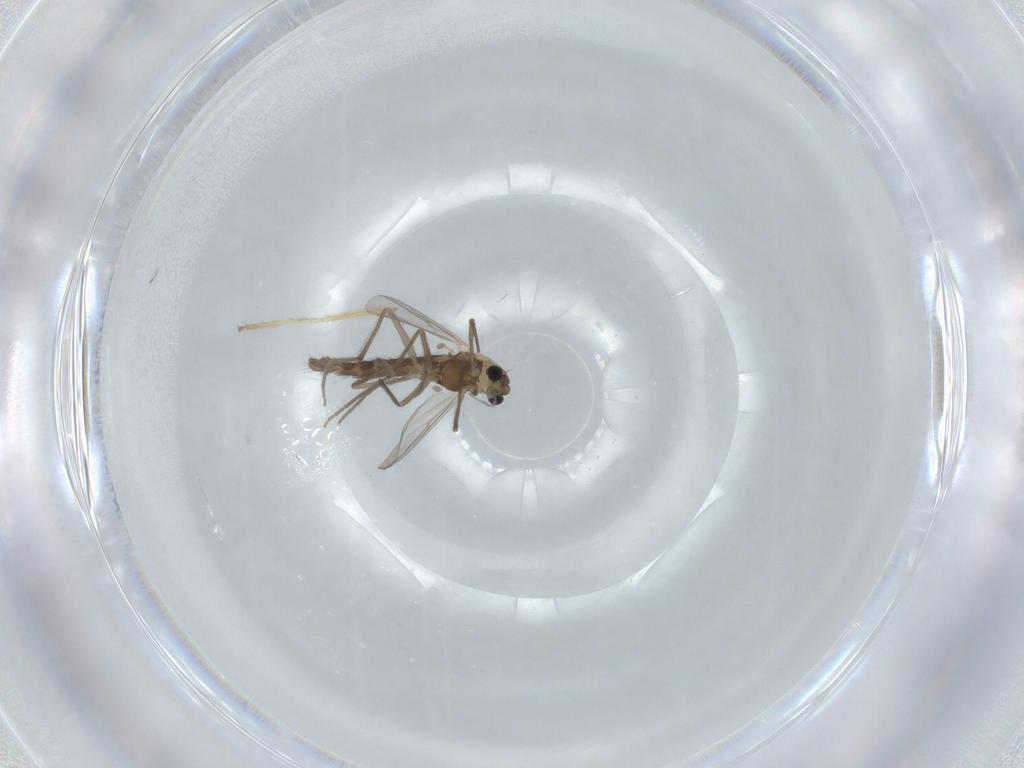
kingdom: Animalia
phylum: Arthropoda
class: Insecta
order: Diptera
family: Chironomidae
